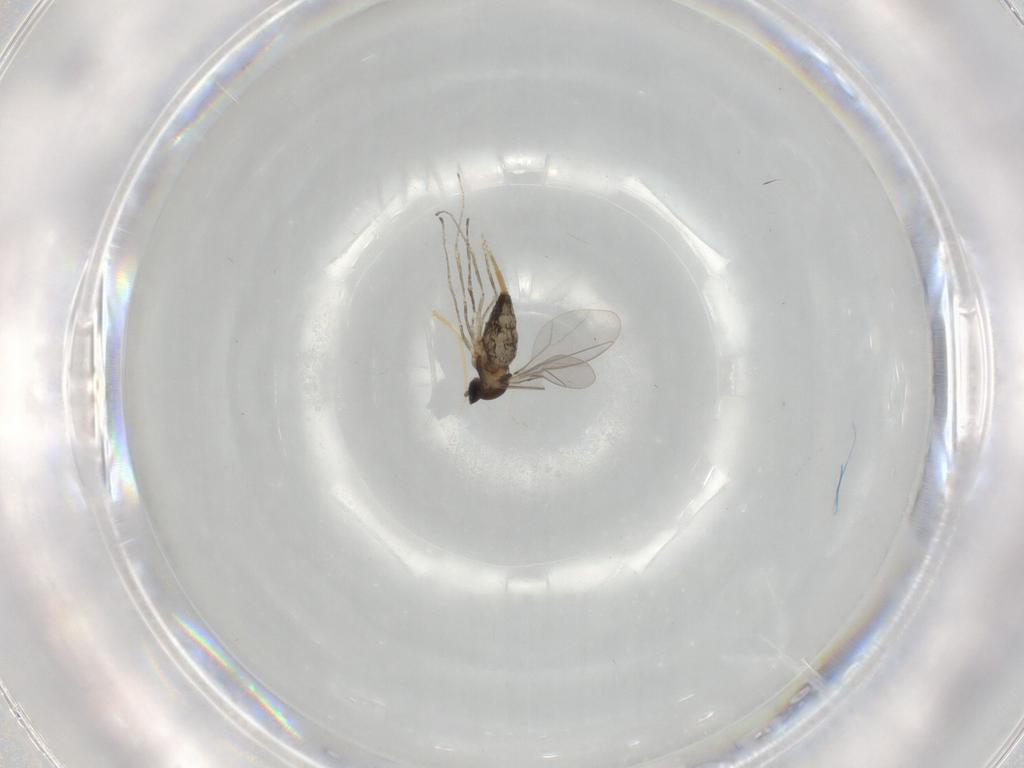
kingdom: Animalia
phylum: Arthropoda
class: Insecta
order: Diptera
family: Cecidomyiidae
